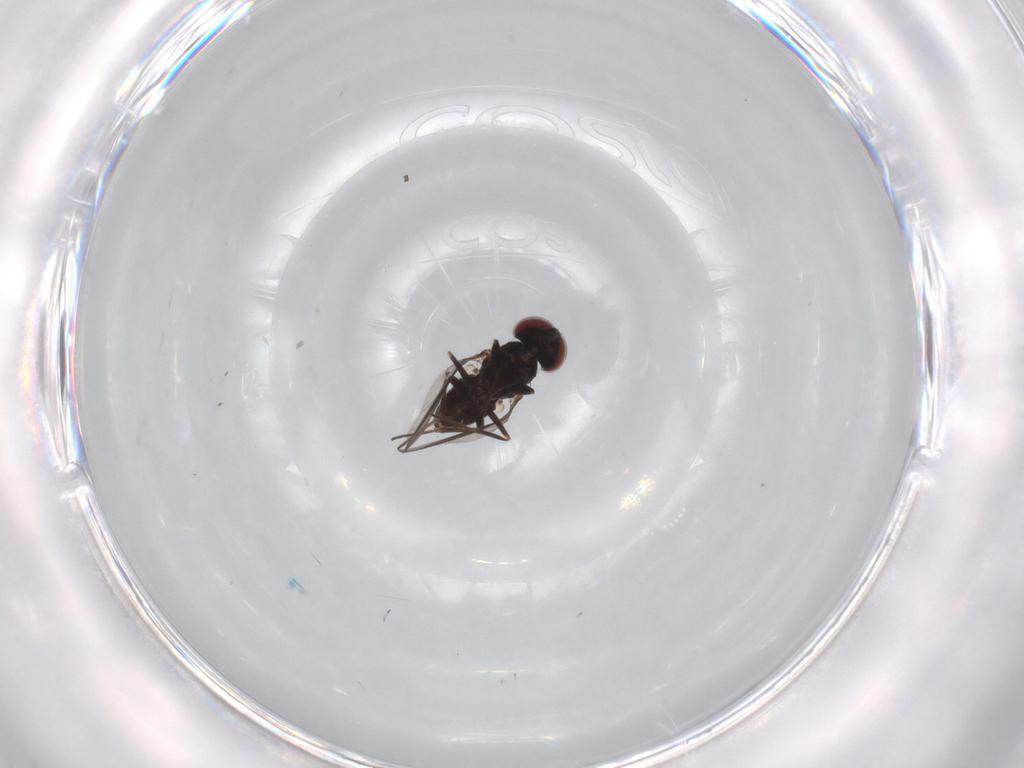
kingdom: Animalia
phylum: Arthropoda
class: Insecta
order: Diptera
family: Dolichopodidae
